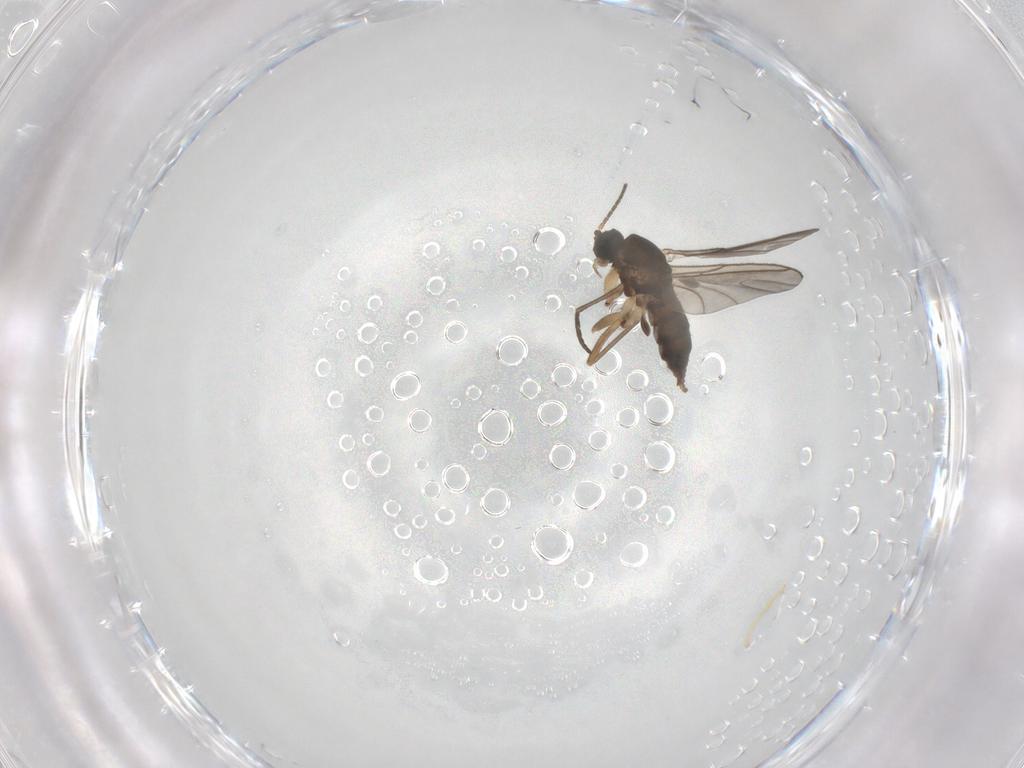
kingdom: Animalia
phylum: Arthropoda
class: Insecta
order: Diptera
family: Sciaridae
